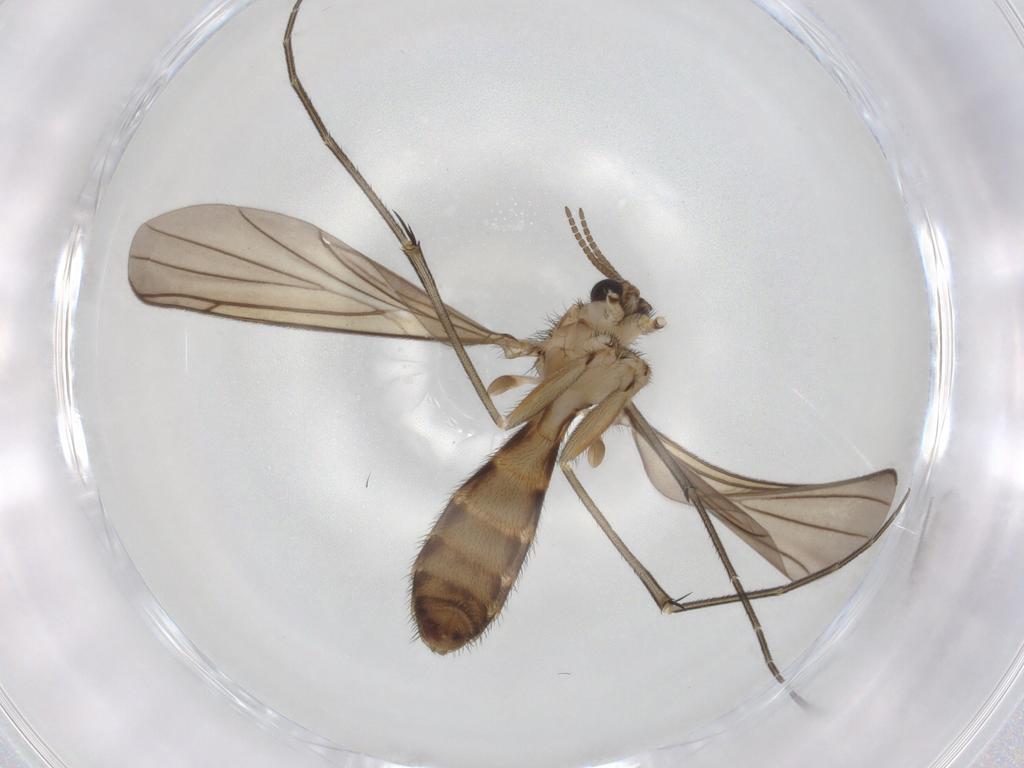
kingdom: Animalia
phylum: Arthropoda
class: Insecta
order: Diptera
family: Keroplatidae
